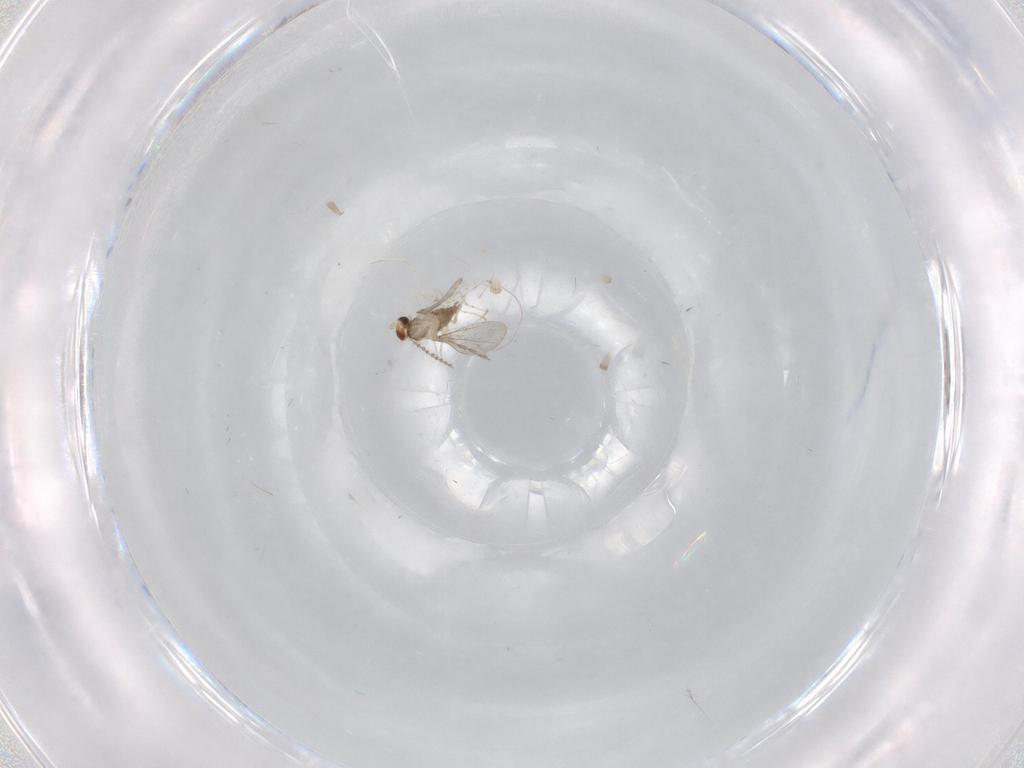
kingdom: Animalia
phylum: Arthropoda
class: Insecta
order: Diptera
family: Cecidomyiidae
